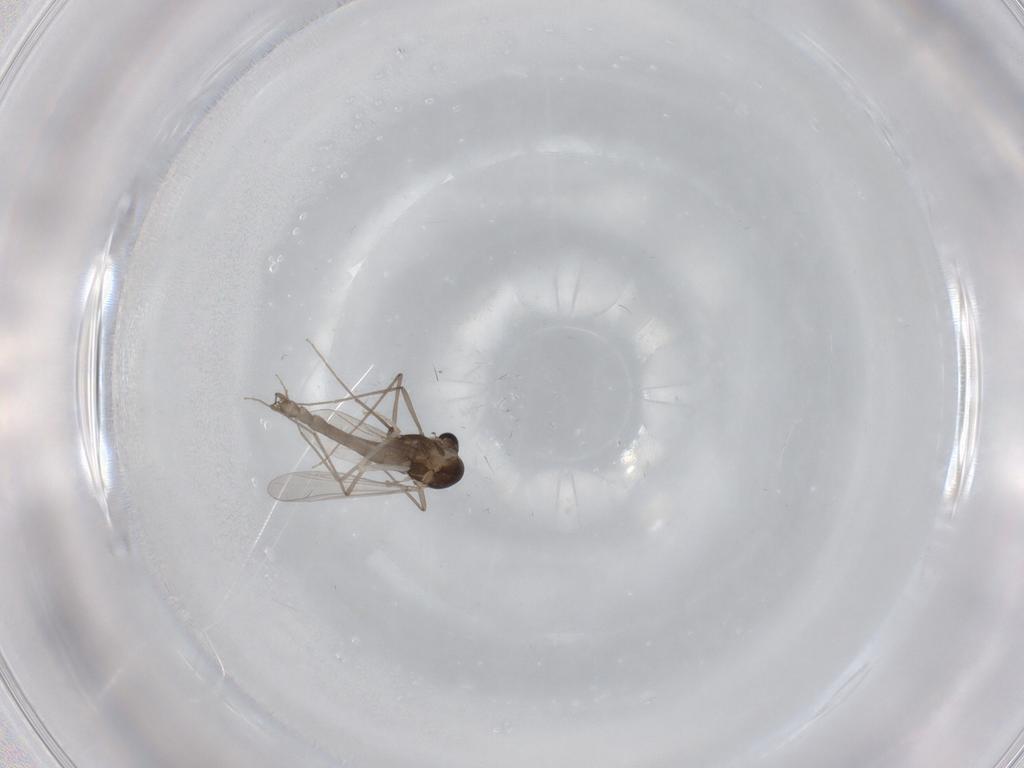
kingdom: Animalia
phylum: Arthropoda
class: Insecta
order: Diptera
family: Chironomidae
